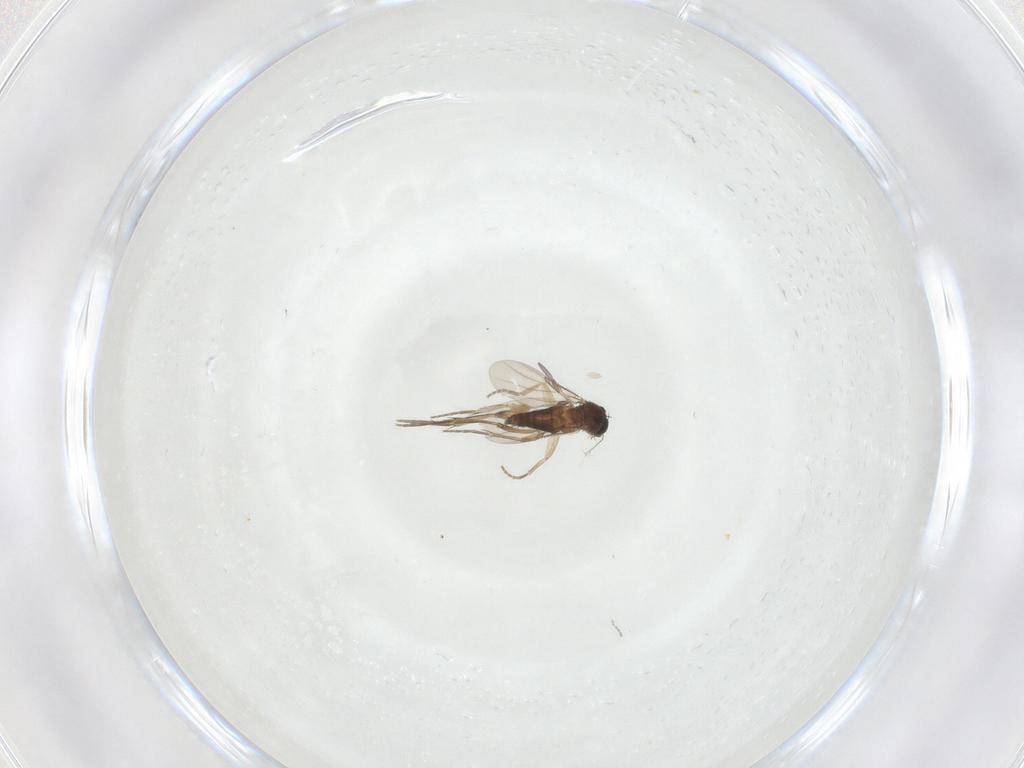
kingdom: Animalia
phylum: Arthropoda
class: Insecta
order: Diptera
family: Phoridae
